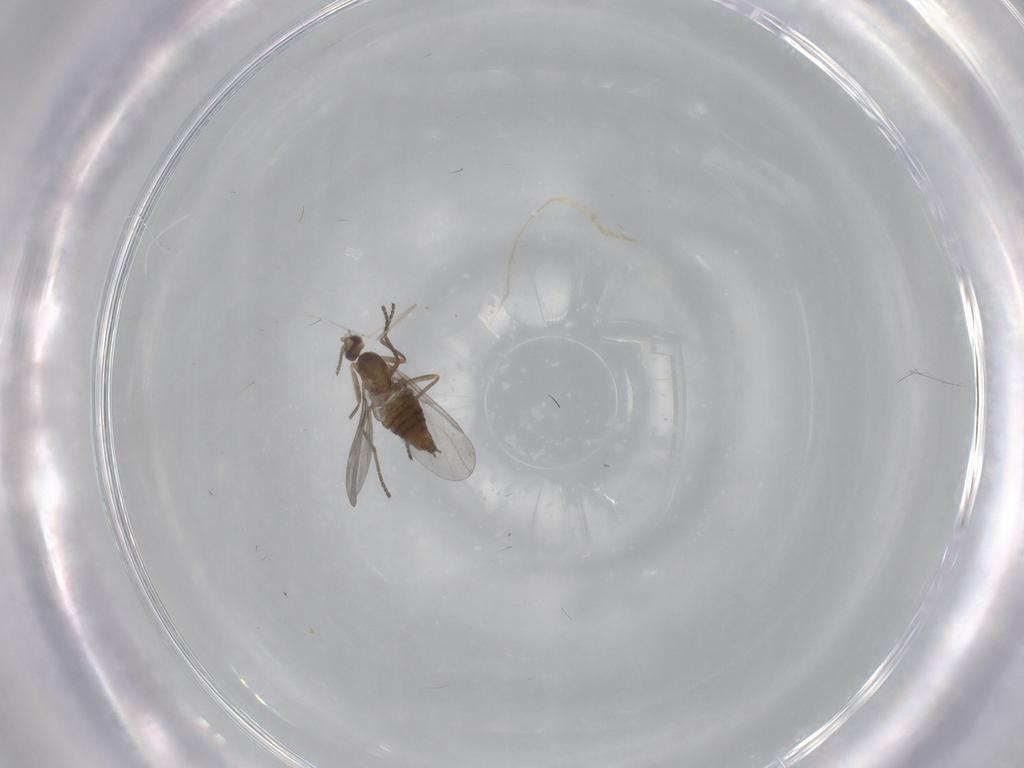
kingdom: Animalia
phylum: Arthropoda
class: Insecta
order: Diptera
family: Cecidomyiidae
